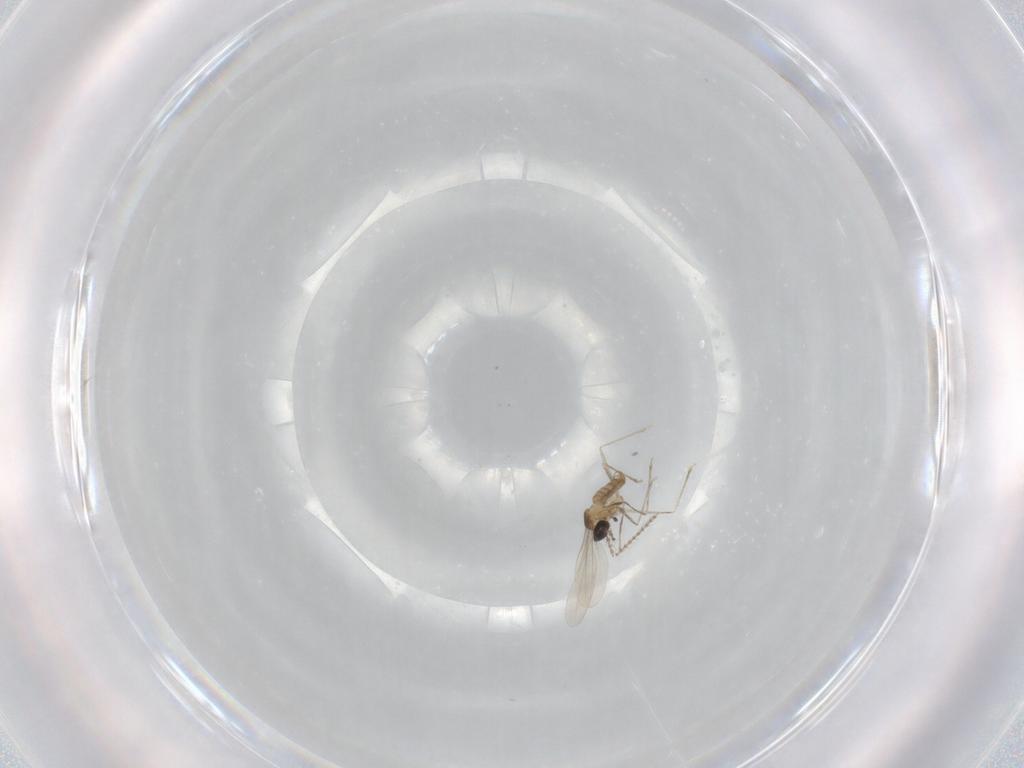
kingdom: Animalia
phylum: Arthropoda
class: Insecta
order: Diptera
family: Cecidomyiidae
